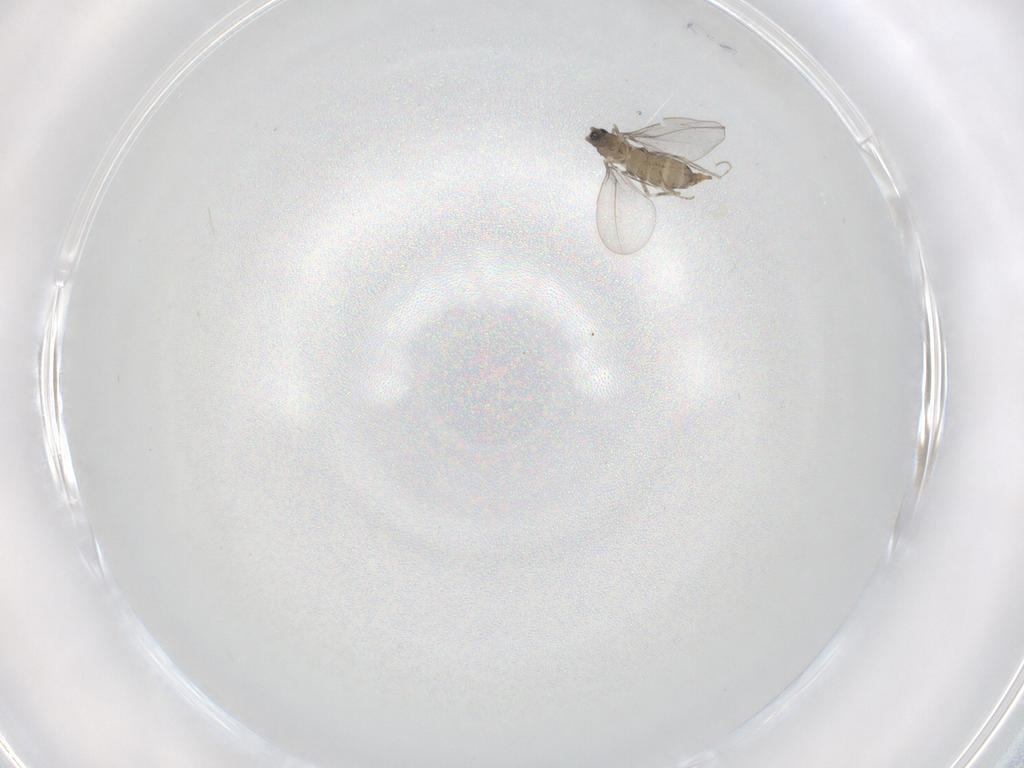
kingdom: Animalia
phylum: Arthropoda
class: Insecta
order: Diptera
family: Cecidomyiidae
